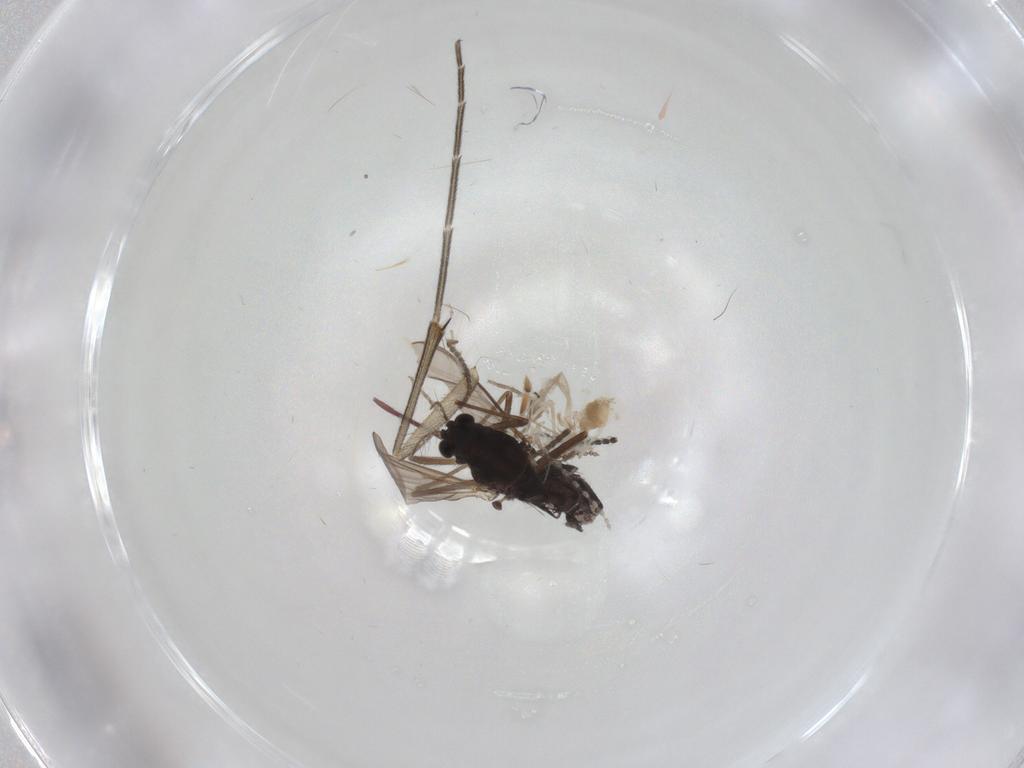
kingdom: Animalia
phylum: Arthropoda
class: Insecta
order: Diptera
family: Chironomidae
